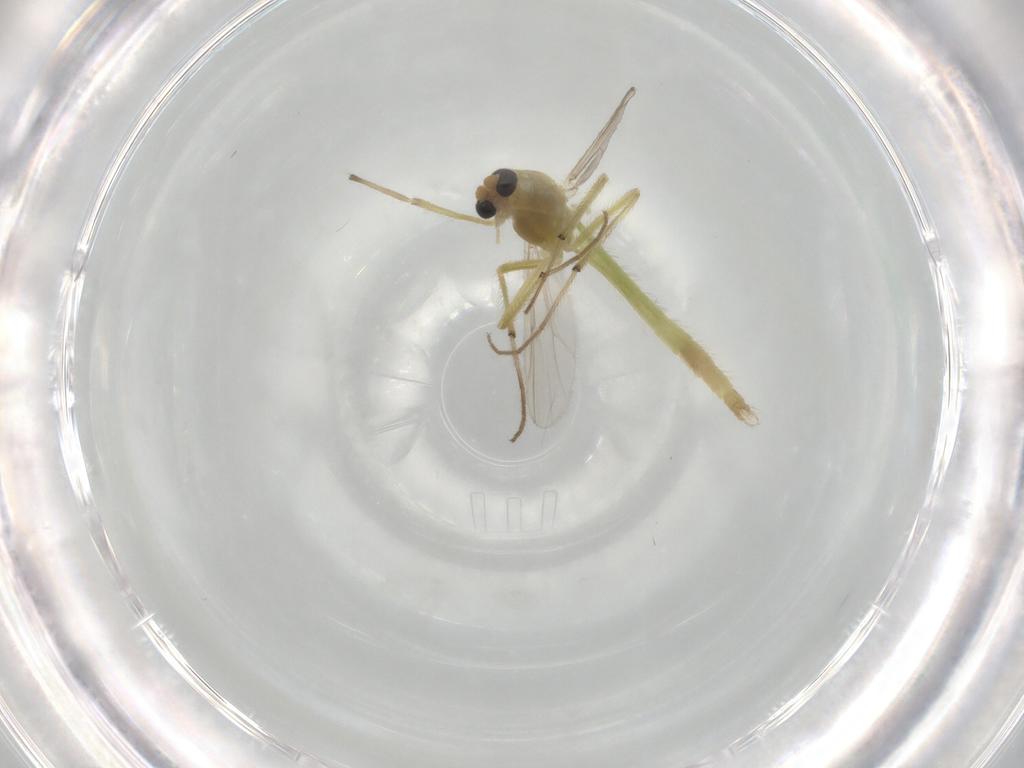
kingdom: Animalia
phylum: Arthropoda
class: Insecta
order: Diptera
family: Chironomidae
